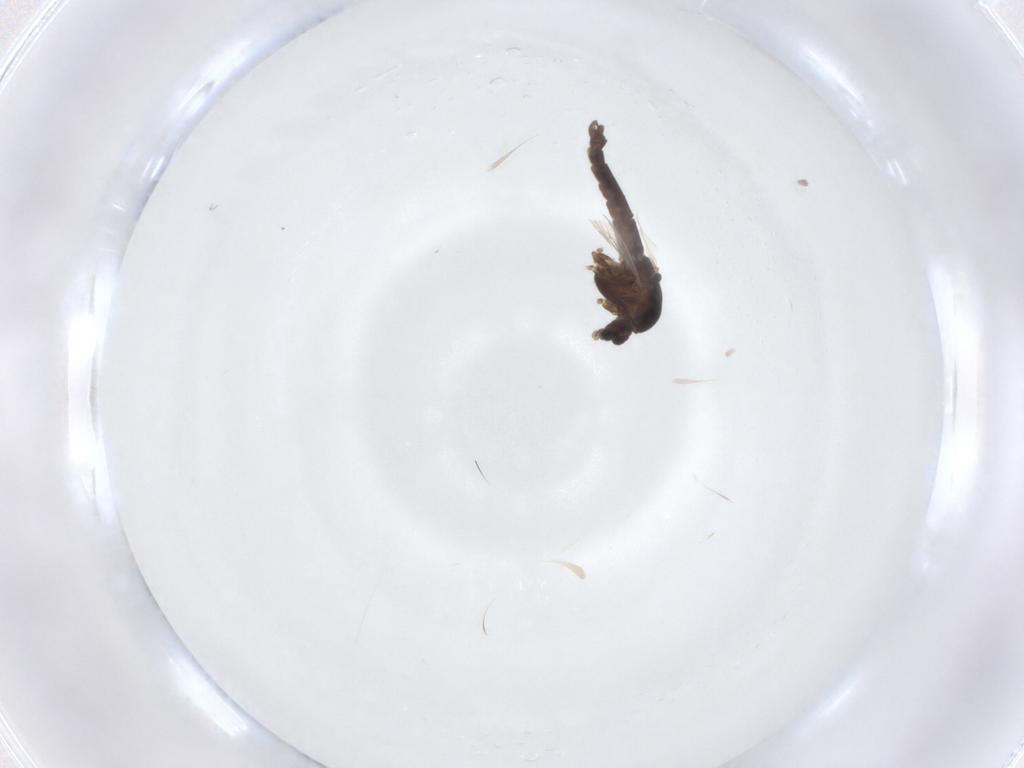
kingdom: Animalia
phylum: Arthropoda
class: Insecta
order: Diptera
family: Chironomidae
